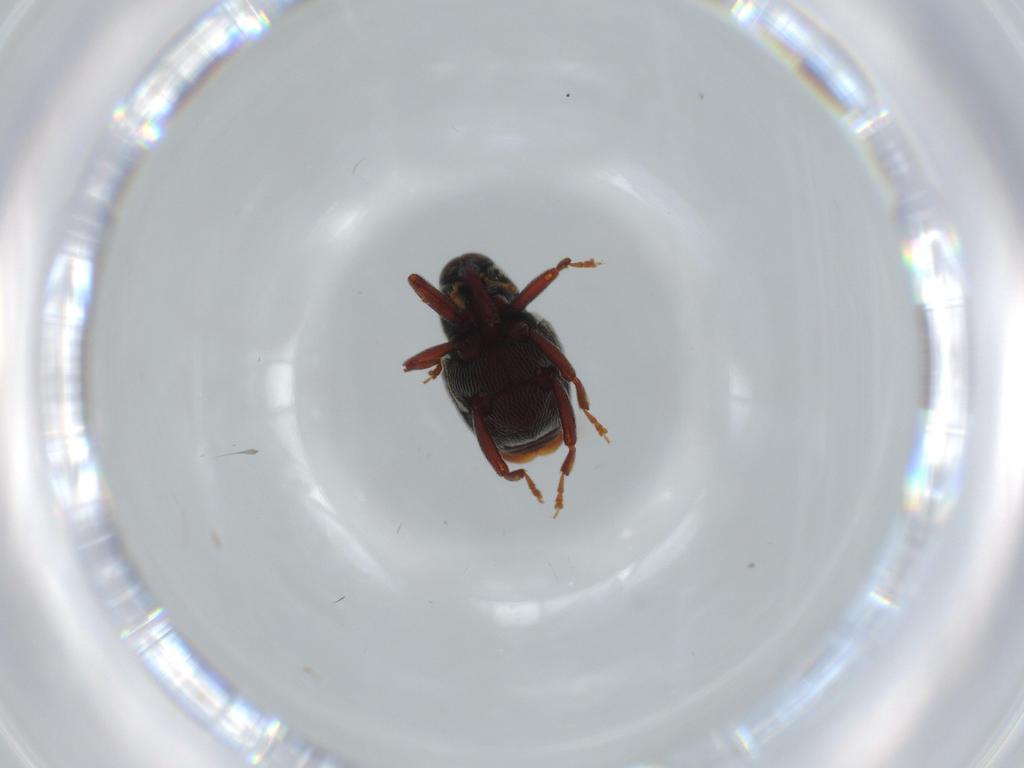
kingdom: Animalia
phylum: Arthropoda
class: Insecta
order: Coleoptera
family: Curculionidae
